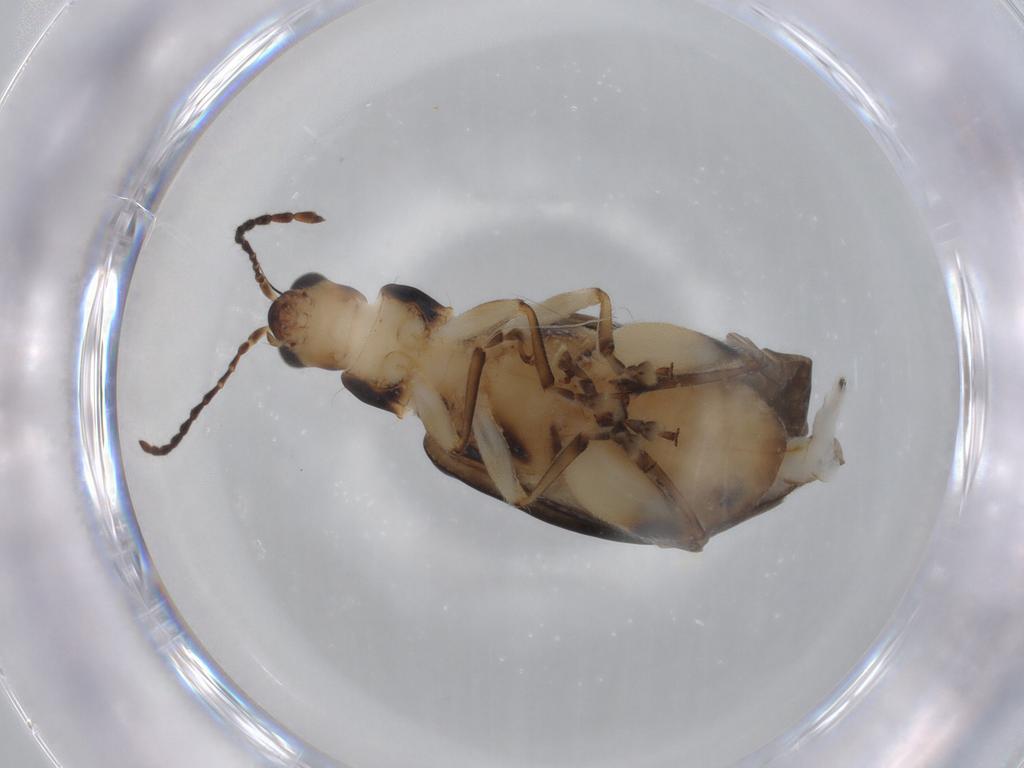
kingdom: Animalia
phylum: Arthropoda
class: Insecta
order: Coleoptera
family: Chrysomelidae
